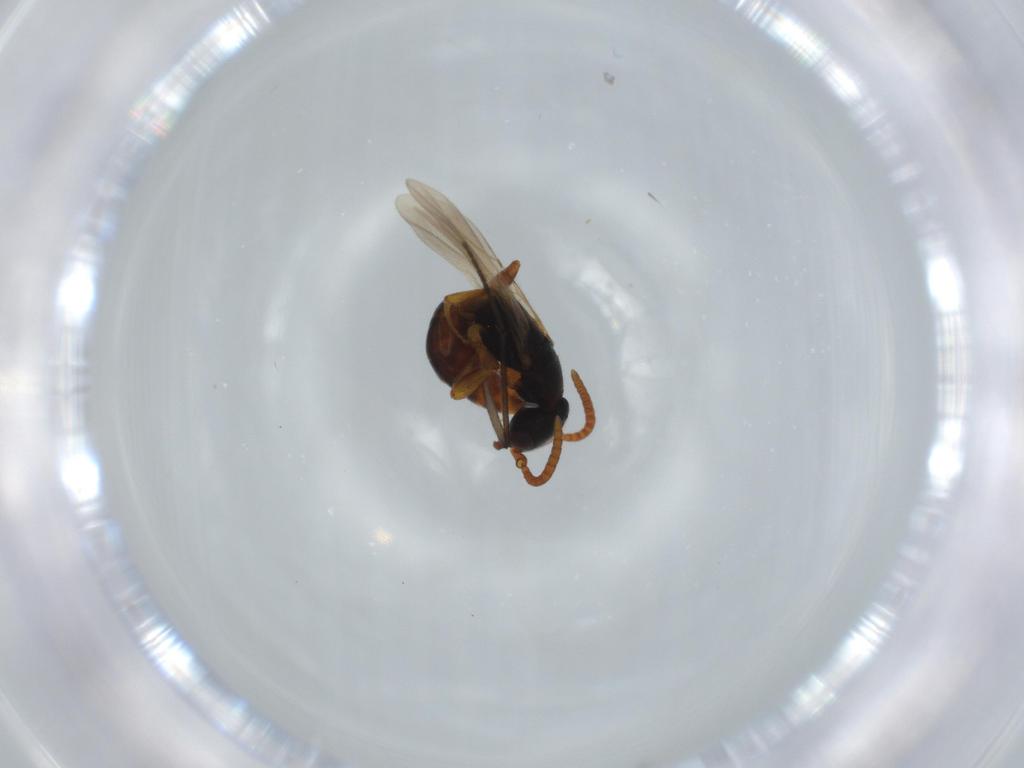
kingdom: Animalia
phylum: Arthropoda
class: Insecta
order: Hymenoptera
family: Bethylidae
